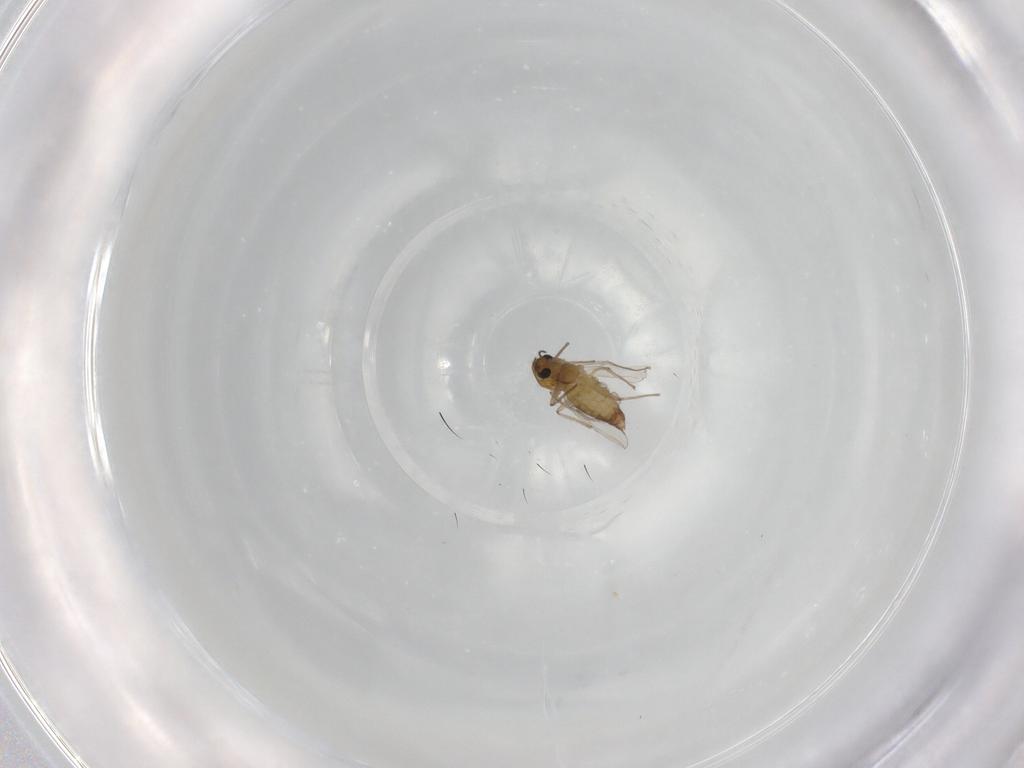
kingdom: Animalia
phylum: Arthropoda
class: Insecta
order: Diptera
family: Chironomidae
